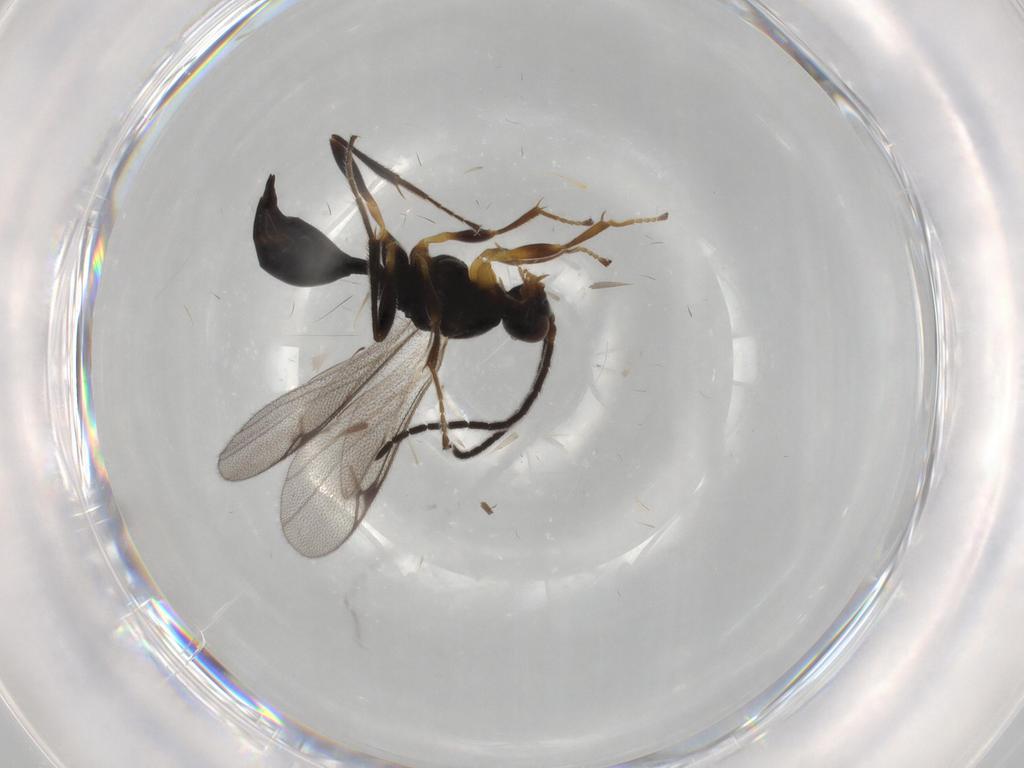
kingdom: Animalia
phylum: Arthropoda
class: Insecta
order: Hymenoptera
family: Proctotrupidae
